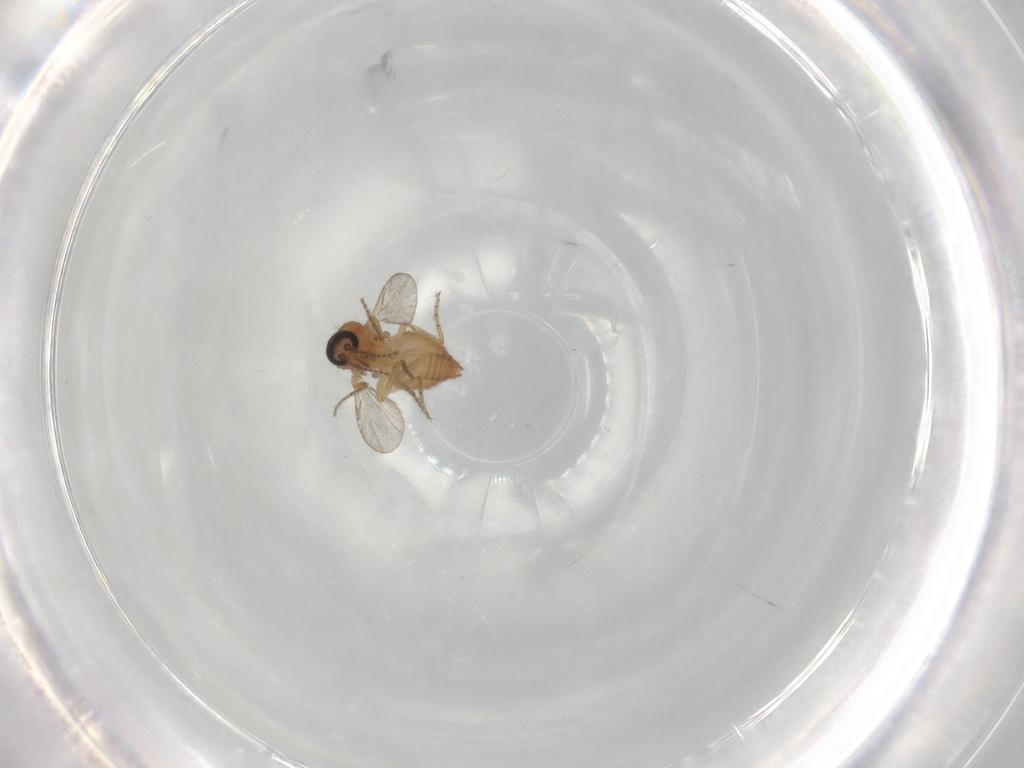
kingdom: Animalia
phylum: Arthropoda
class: Insecta
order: Diptera
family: Ceratopogonidae
